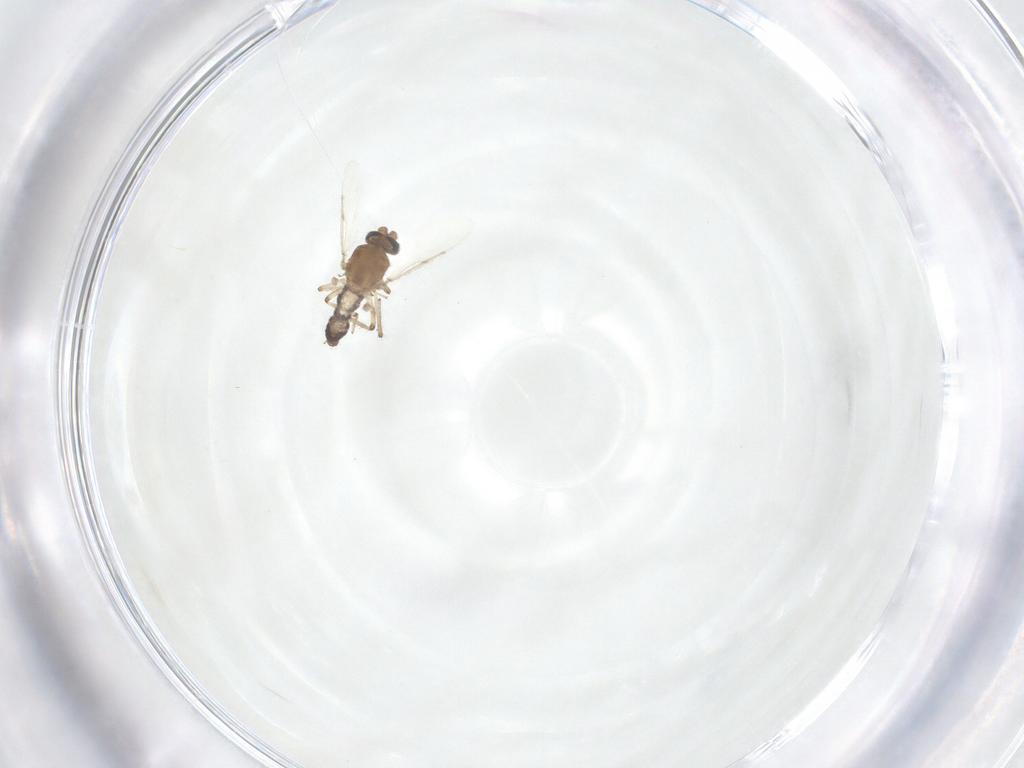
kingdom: Animalia
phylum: Arthropoda
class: Insecta
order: Diptera
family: Ceratopogonidae
